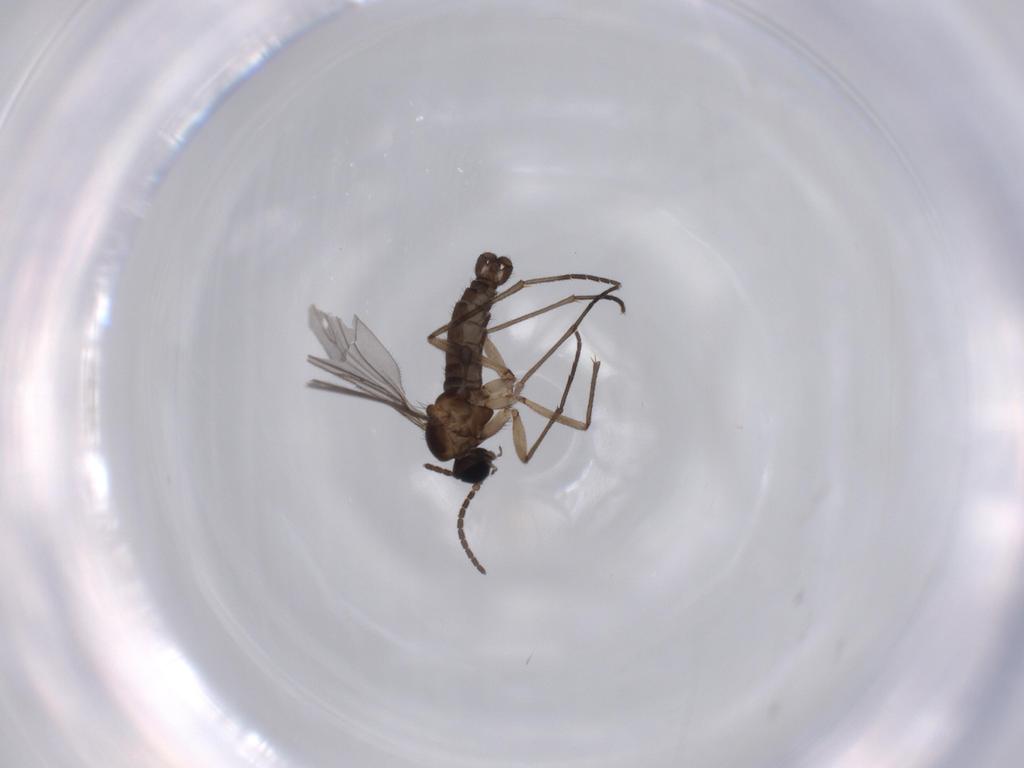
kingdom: Animalia
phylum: Arthropoda
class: Insecta
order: Diptera
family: Sciaridae
